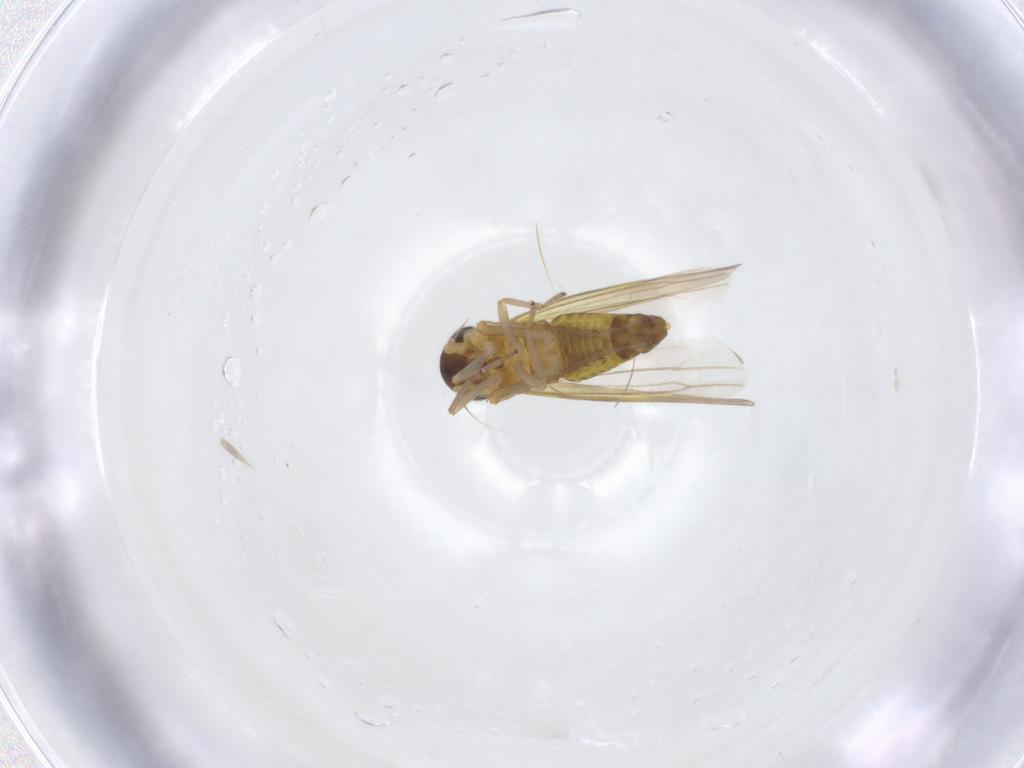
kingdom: Animalia
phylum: Arthropoda
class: Insecta
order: Hemiptera
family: Cicadellidae
